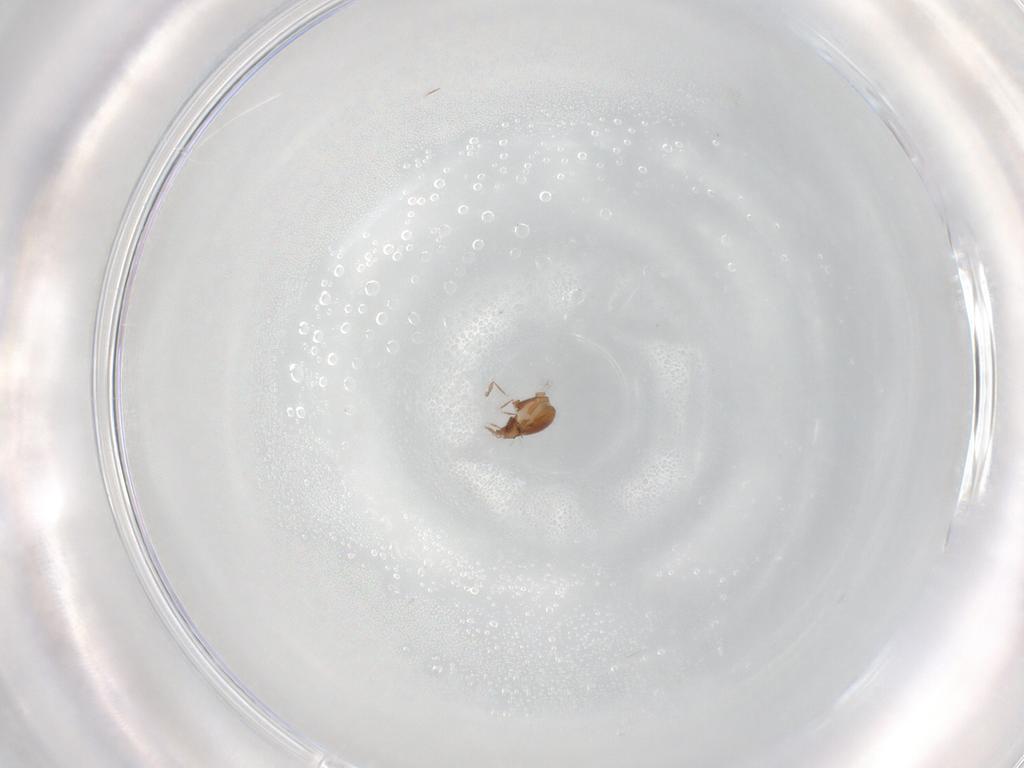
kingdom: Animalia
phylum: Arthropoda
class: Arachnida
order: Sarcoptiformes
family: Oribatulidae
